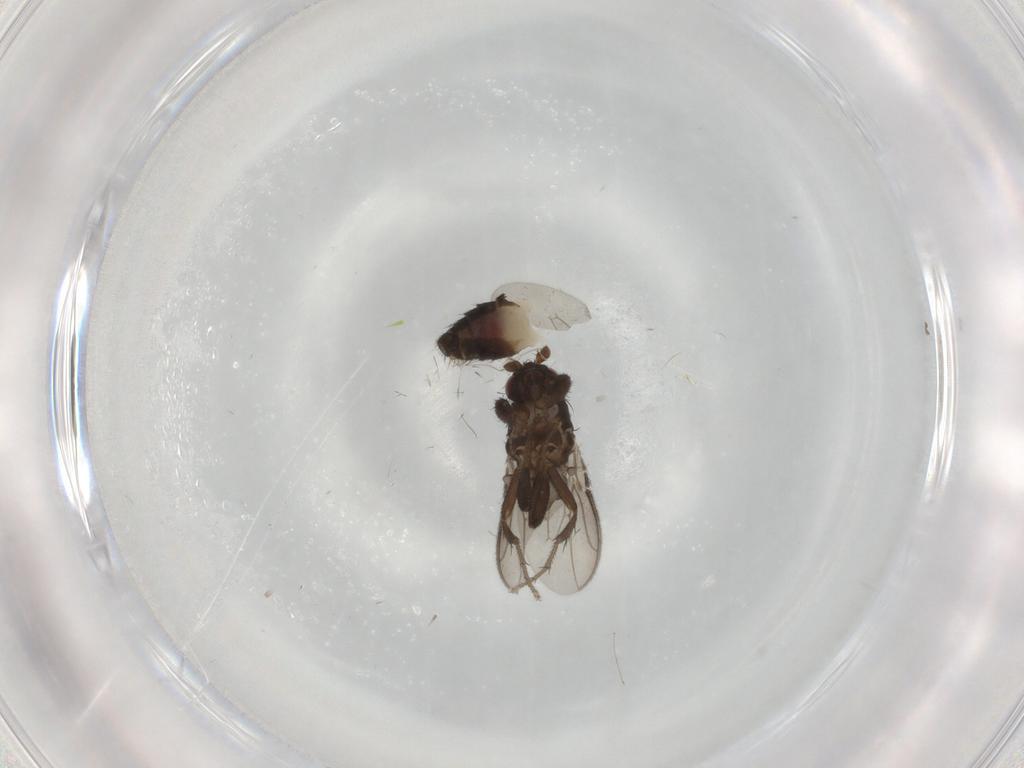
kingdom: Animalia
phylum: Arthropoda
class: Insecta
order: Diptera
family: Sphaeroceridae
